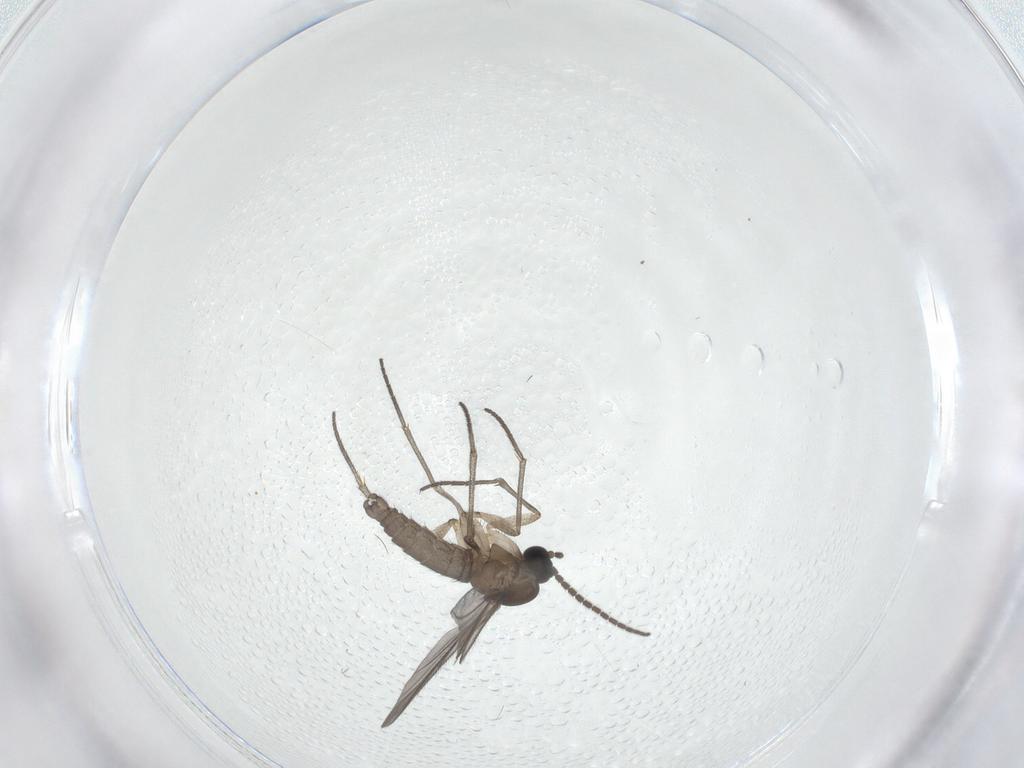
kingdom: Animalia
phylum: Arthropoda
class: Insecta
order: Diptera
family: Sciaridae
